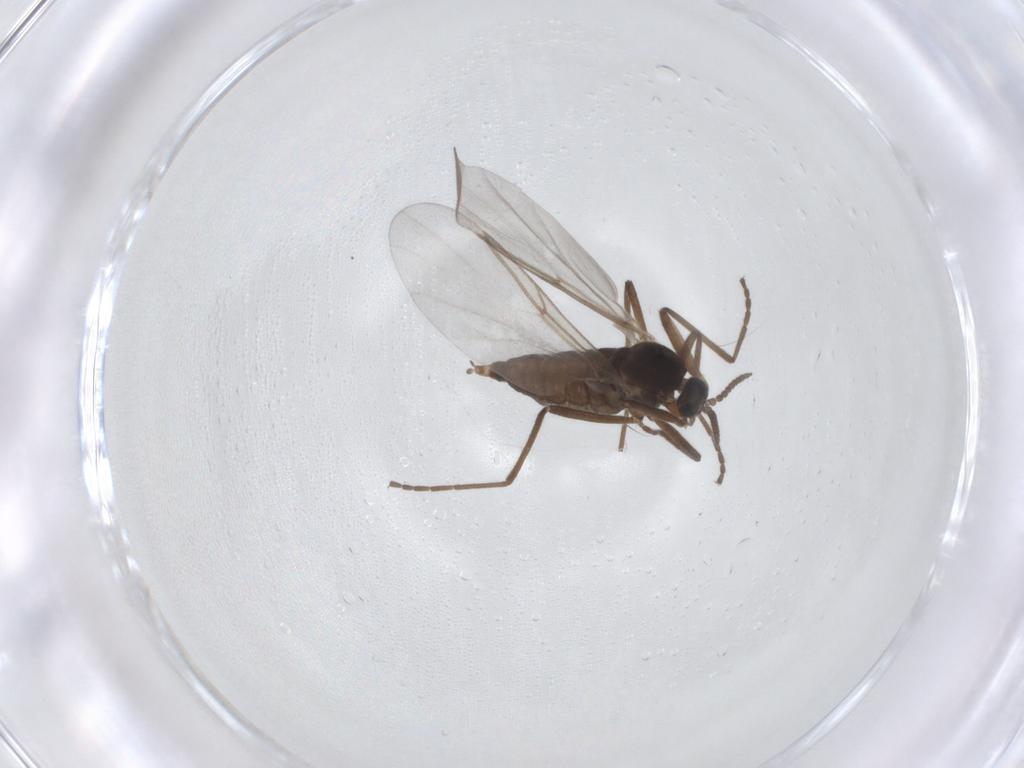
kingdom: Animalia
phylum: Arthropoda
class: Insecta
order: Diptera
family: Cecidomyiidae
